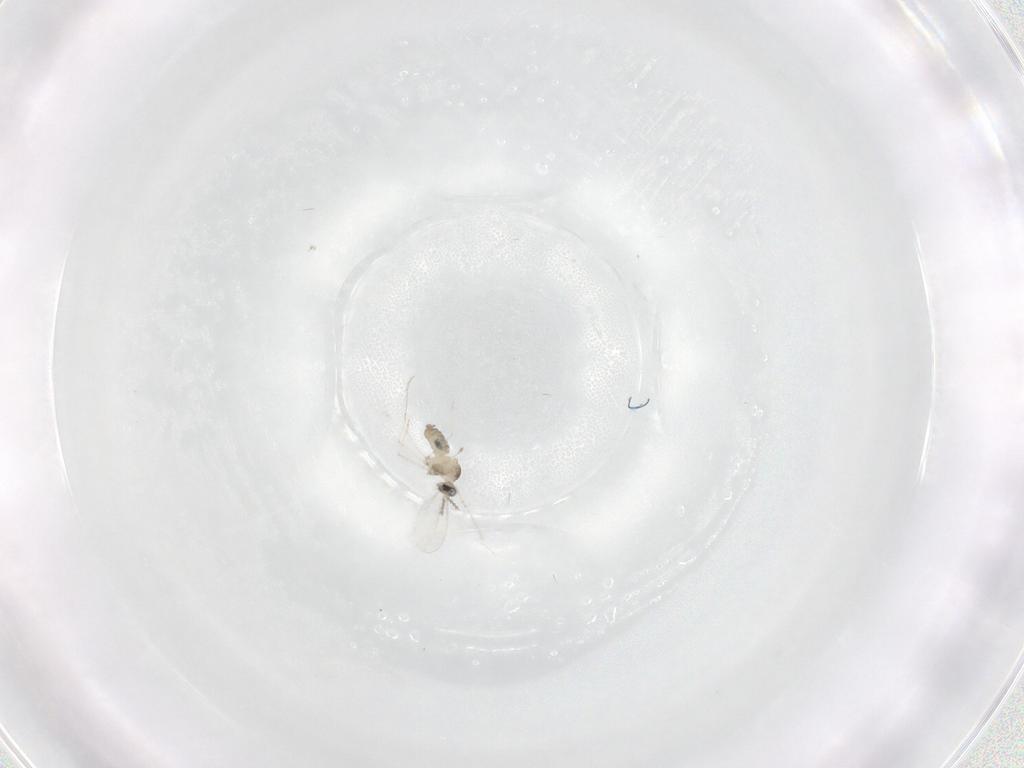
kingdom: Animalia
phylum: Arthropoda
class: Insecta
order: Diptera
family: Cecidomyiidae
